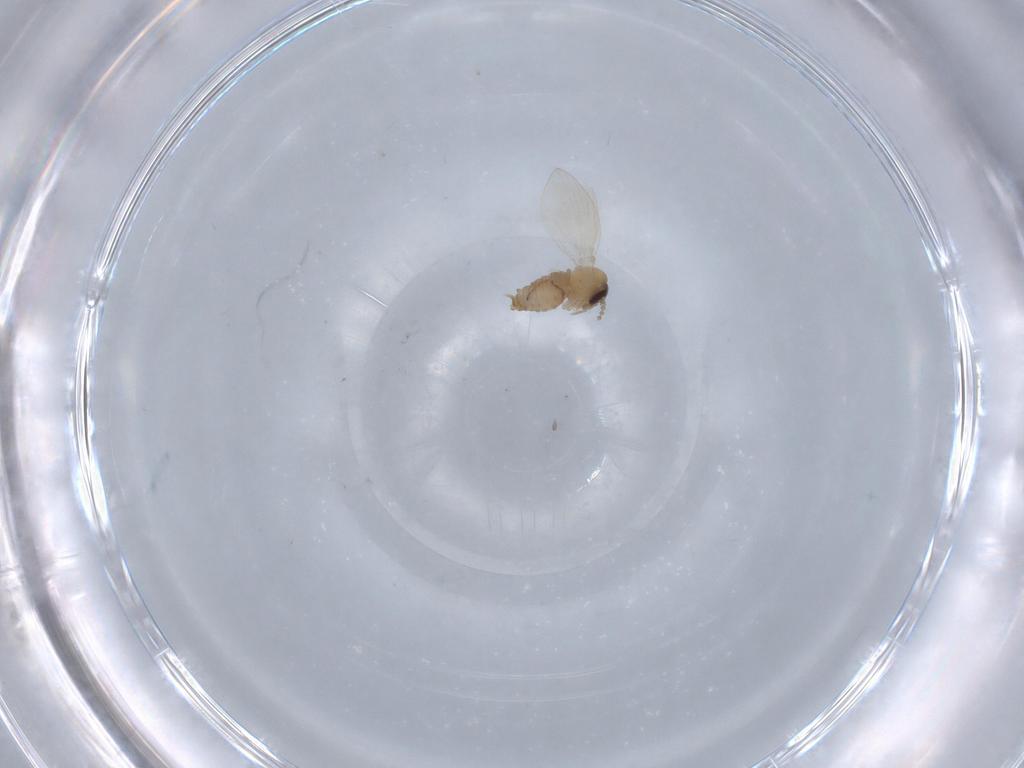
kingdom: Animalia
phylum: Arthropoda
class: Insecta
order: Diptera
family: Psychodidae
